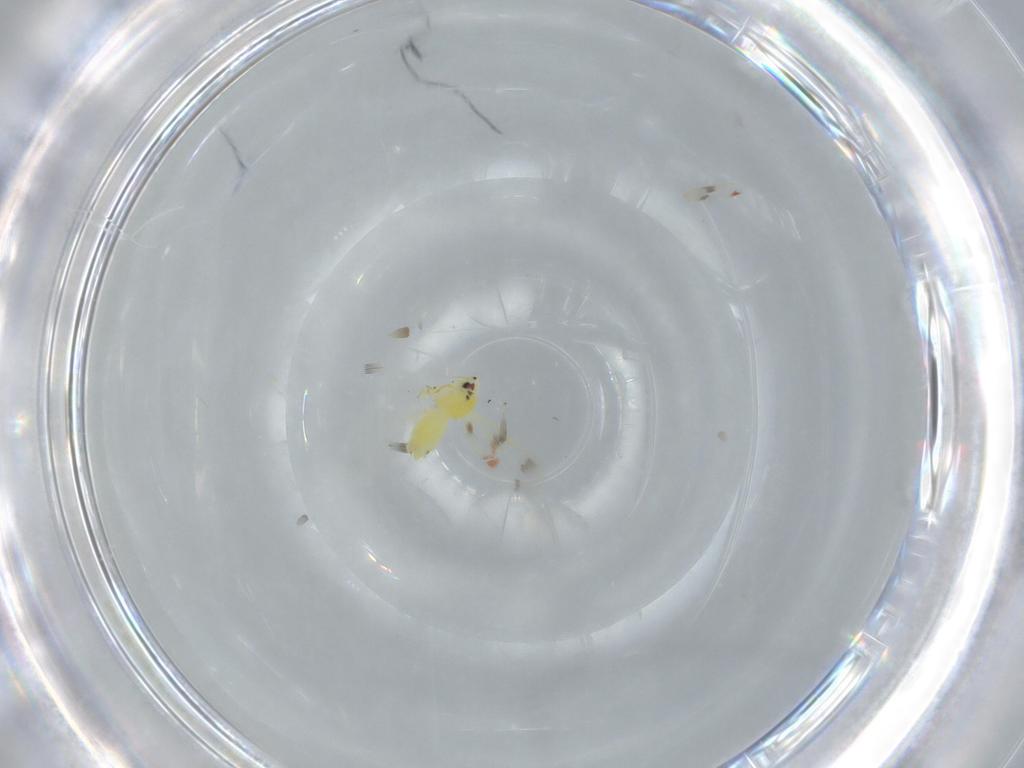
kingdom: Animalia
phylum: Arthropoda
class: Insecta
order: Hemiptera
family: Aleyrodidae
